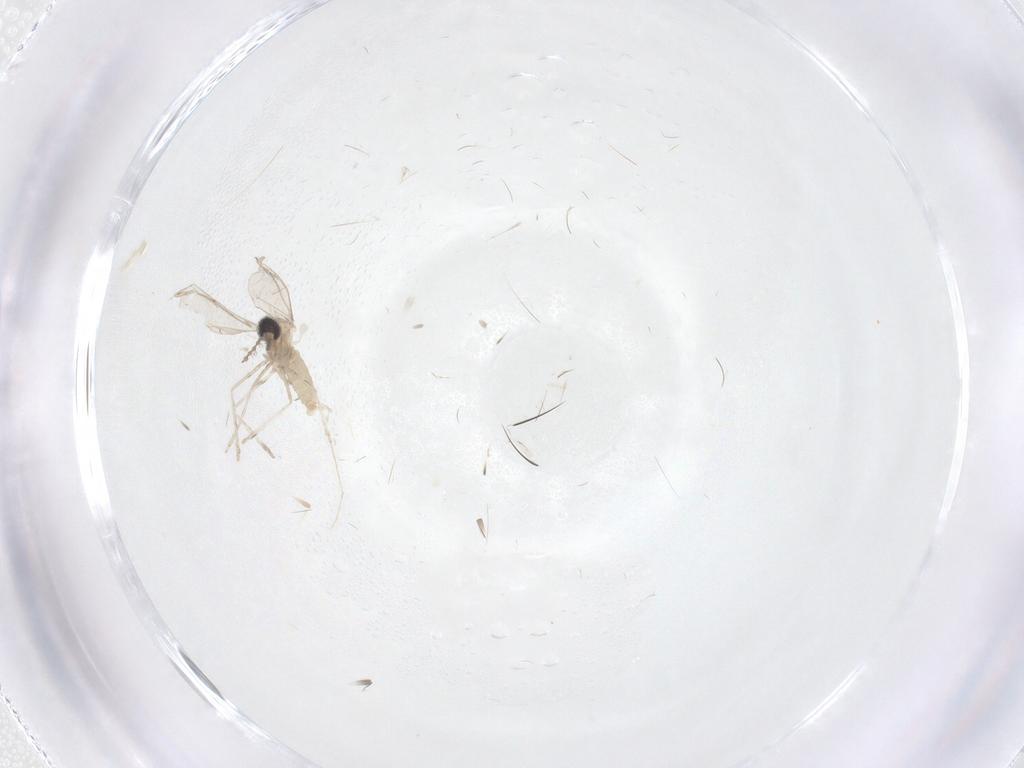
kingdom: Animalia
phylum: Arthropoda
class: Insecta
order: Diptera
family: Cecidomyiidae
